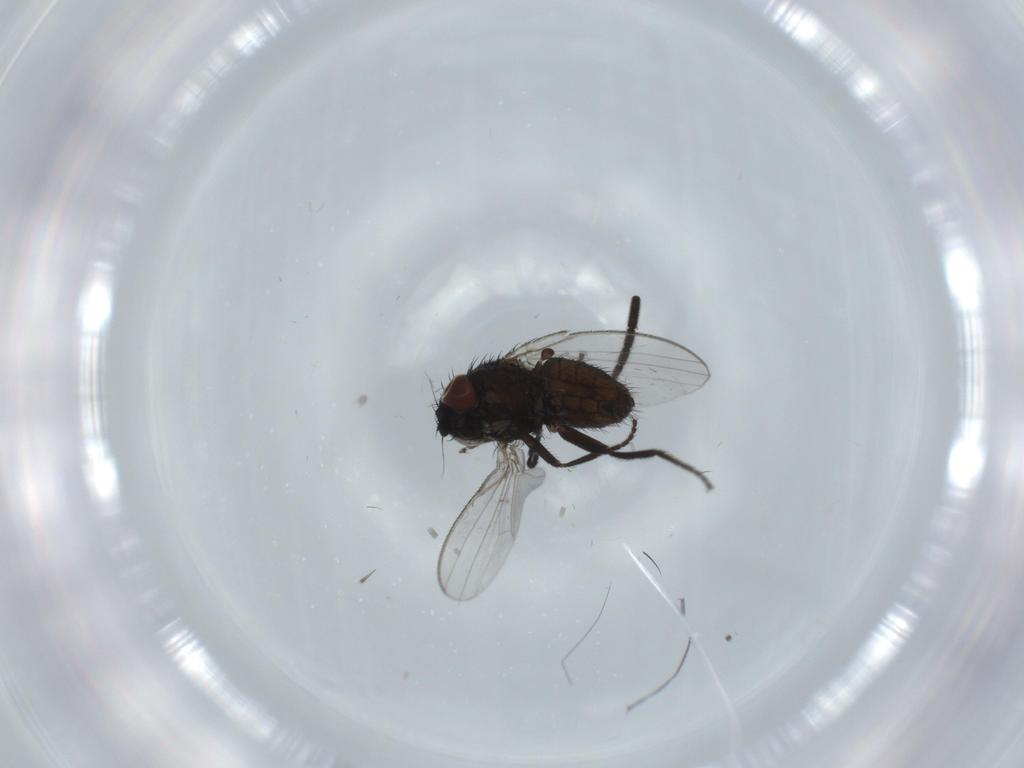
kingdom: Animalia
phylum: Arthropoda
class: Insecta
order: Diptera
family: Milichiidae
